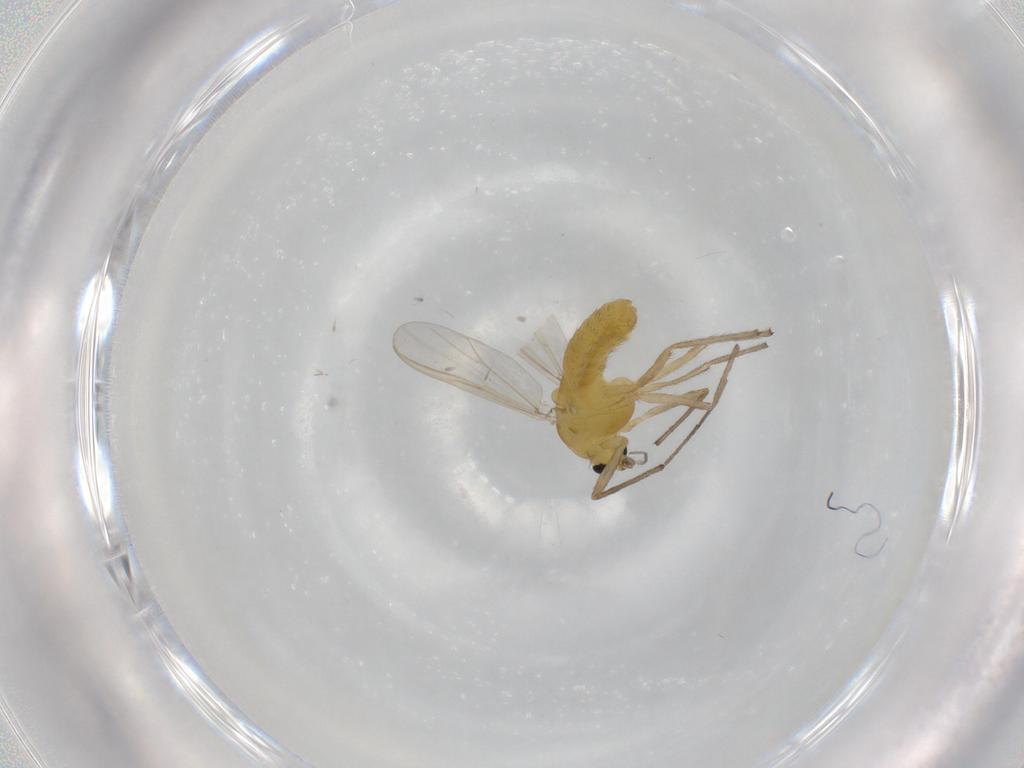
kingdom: Animalia
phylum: Arthropoda
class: Insecta
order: Diptera
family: Chironomidae
